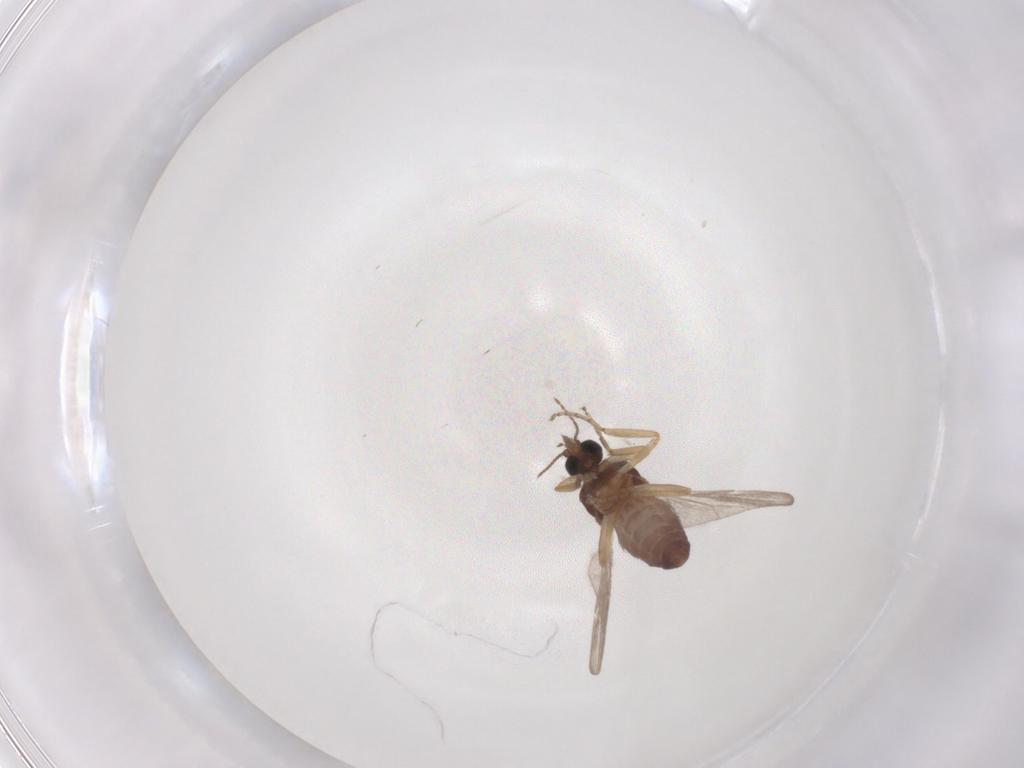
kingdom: Animalia
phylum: Arthropoda
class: Insecta
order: Diptera
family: Ceratopogonidae
